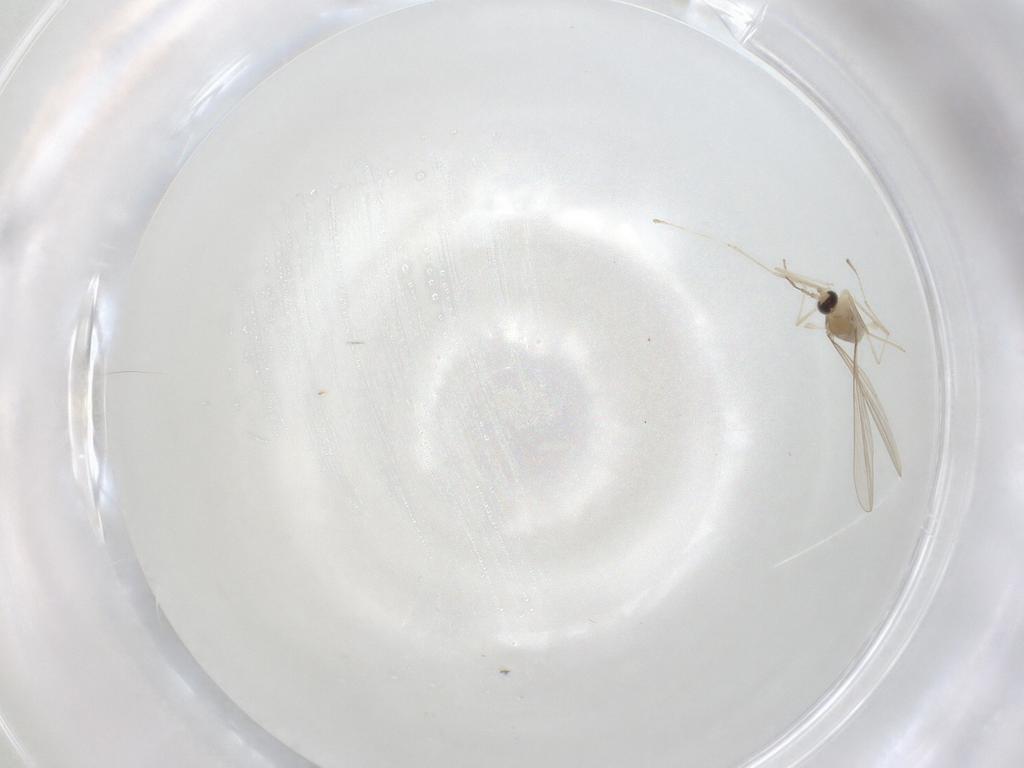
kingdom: Animalia
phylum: Arthropoda
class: Insecta
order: Diptera
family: Cecidomyiidae
